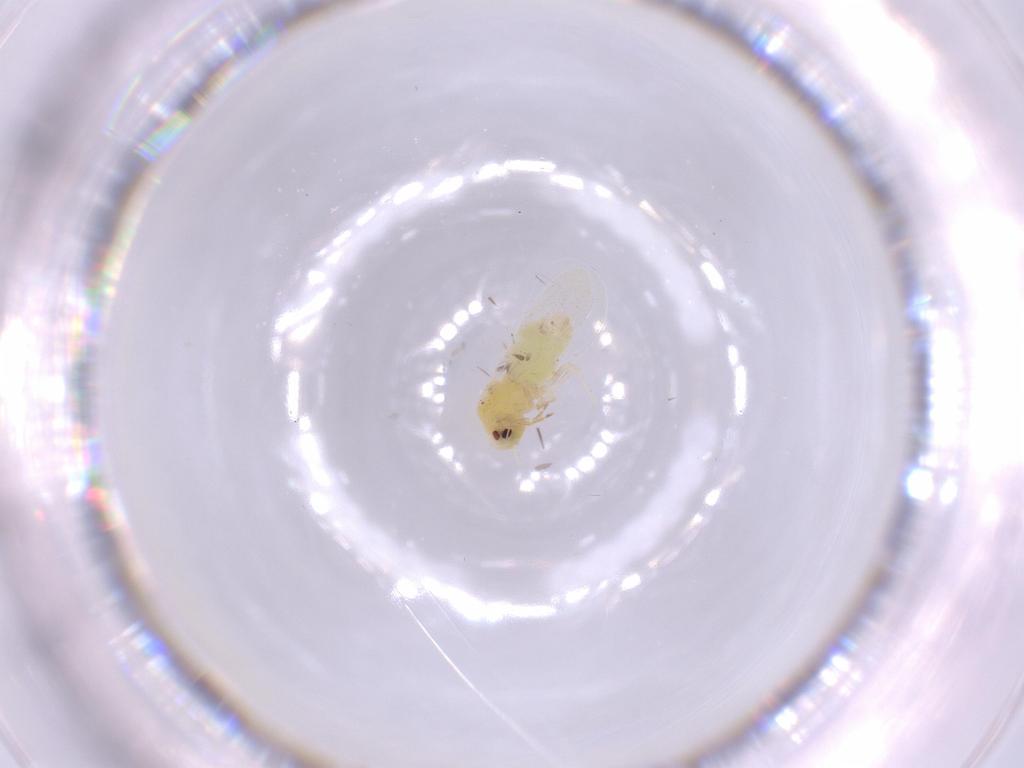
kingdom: Animalia
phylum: Arthropoda
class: Insecta
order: Hemiptera
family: Aleyrodidae
